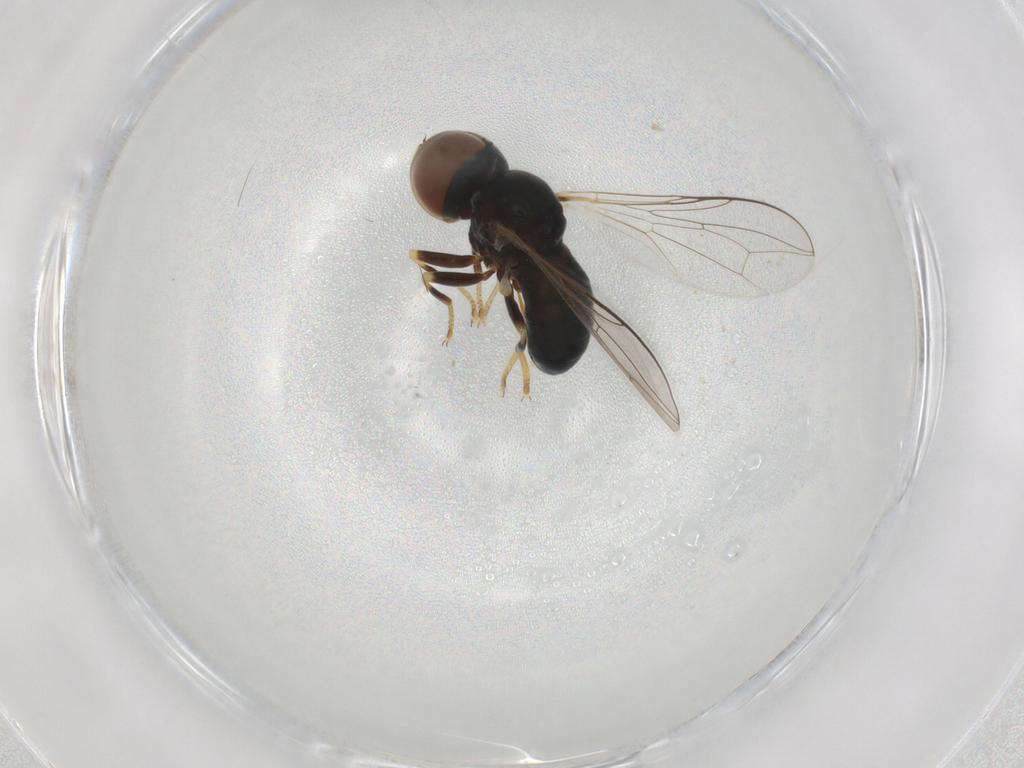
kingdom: Animalia
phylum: Arthropoda
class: Insecta
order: Diptera
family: Pipunculidae
